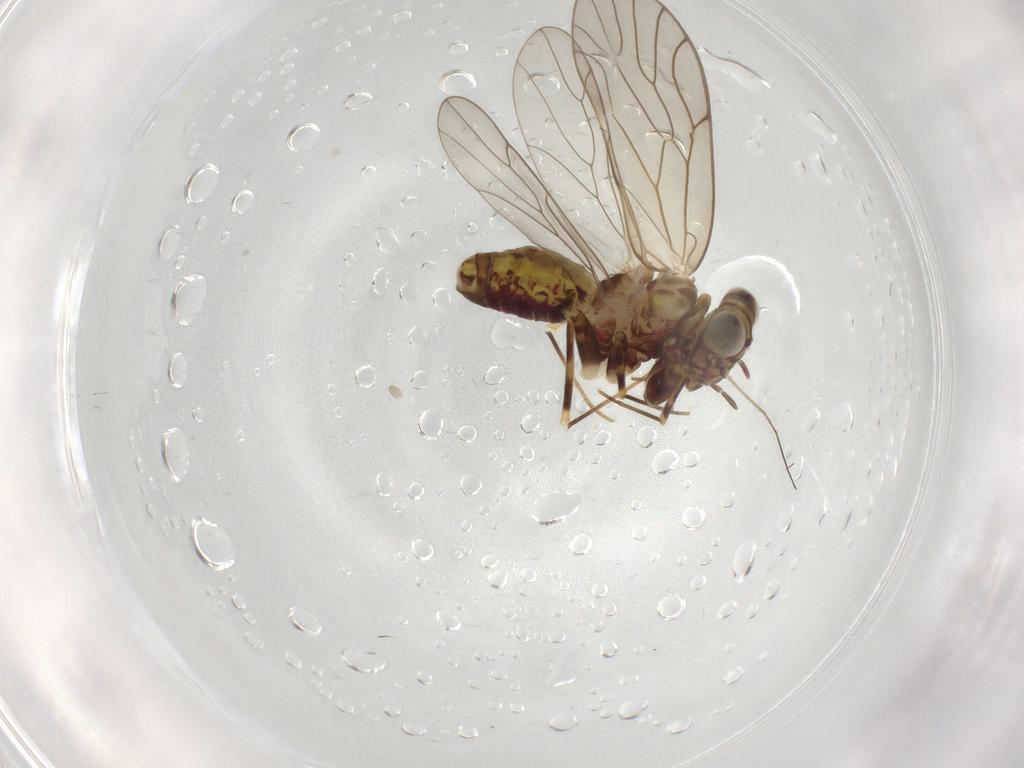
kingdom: Animalia
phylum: Arthropoda
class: Insecta
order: Psocodea
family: Philotarsidae
